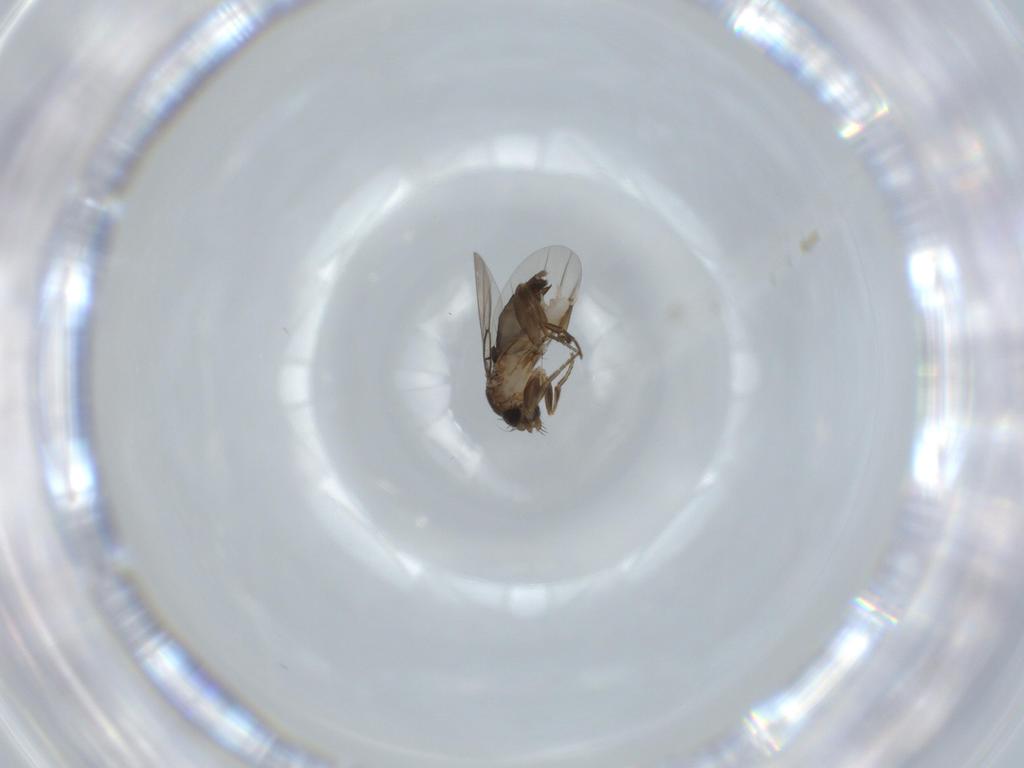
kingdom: Animalia
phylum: Arthropoda
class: Insecta
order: Diptera
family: Phoridae
